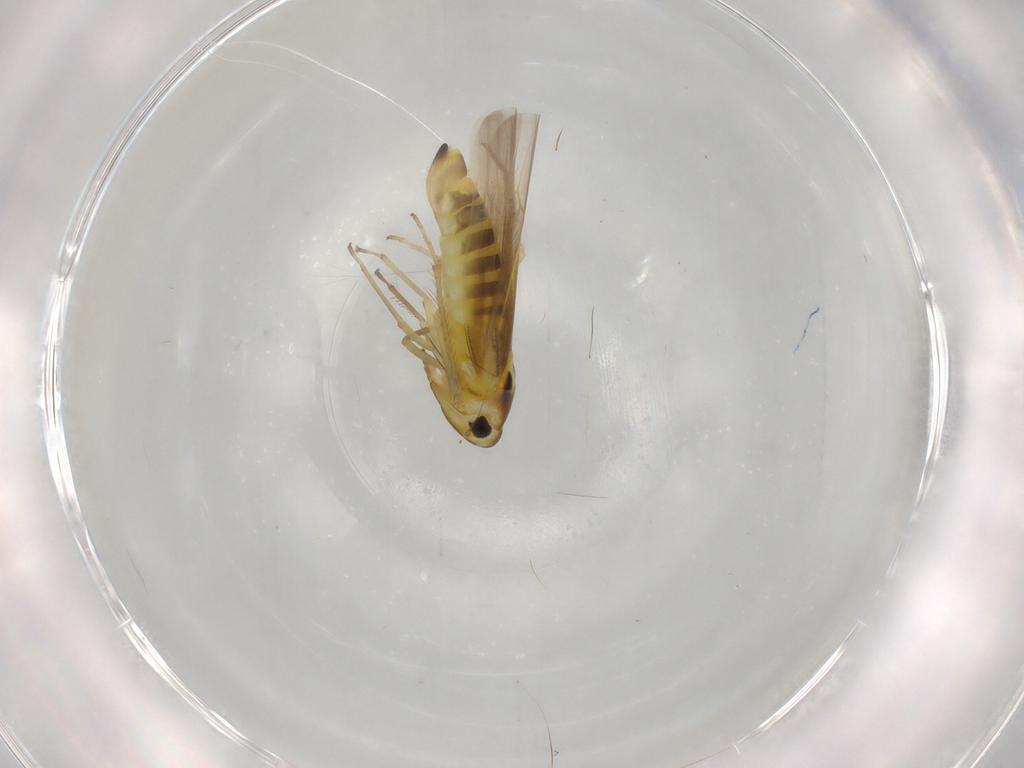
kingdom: Animalia
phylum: Arthropoda
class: Insecta
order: Hemiptera
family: Cicadellidae
